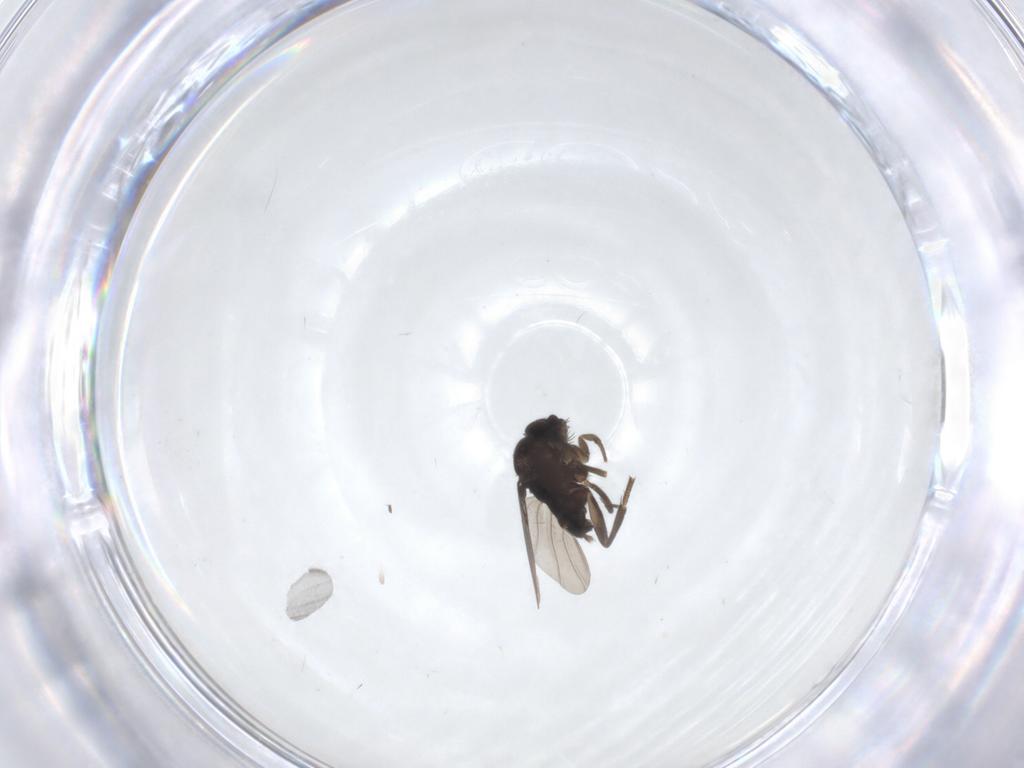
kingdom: Animalia
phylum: Arthropoda
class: Insecta
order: Diptera
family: Phoridae
